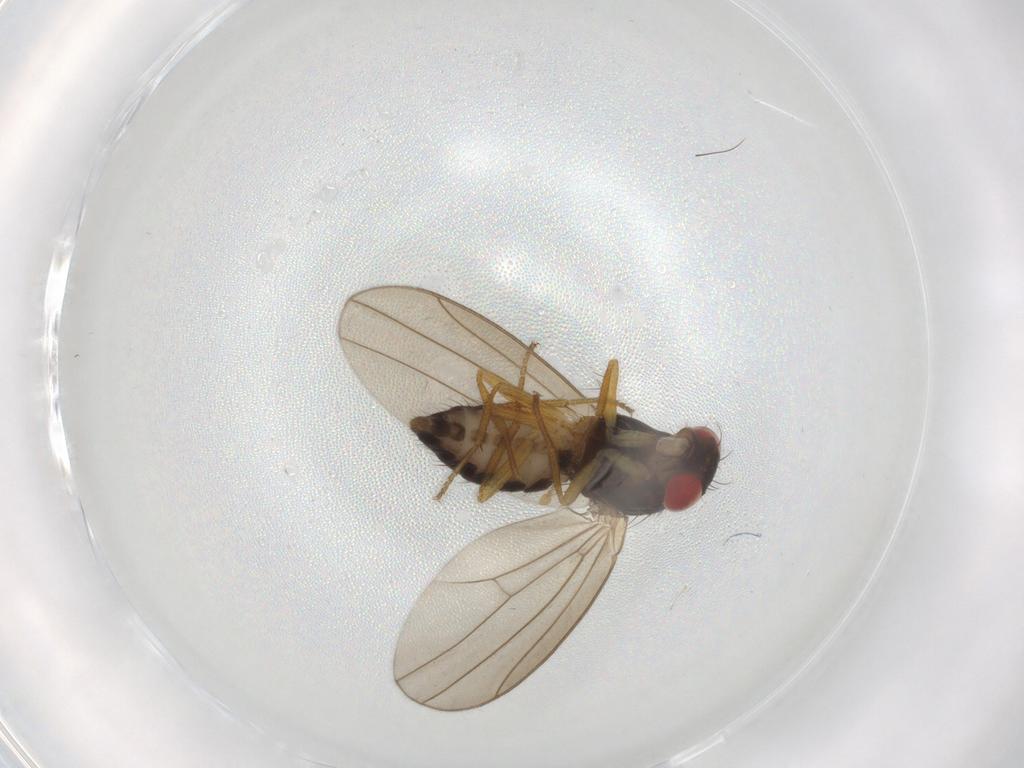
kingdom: Animalia
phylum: Arthropoda
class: Insecta
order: Diptera
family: Drosophilidae
